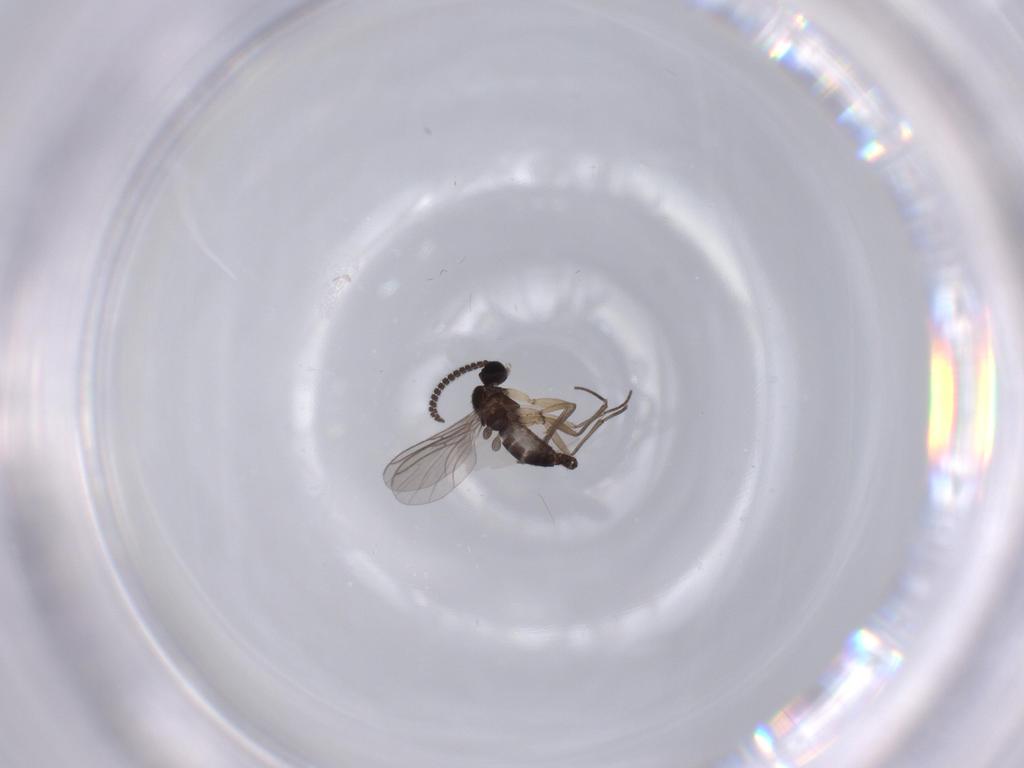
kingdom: Animalia
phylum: Arthropoda
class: Insecta
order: Diptera
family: Sciaridae
